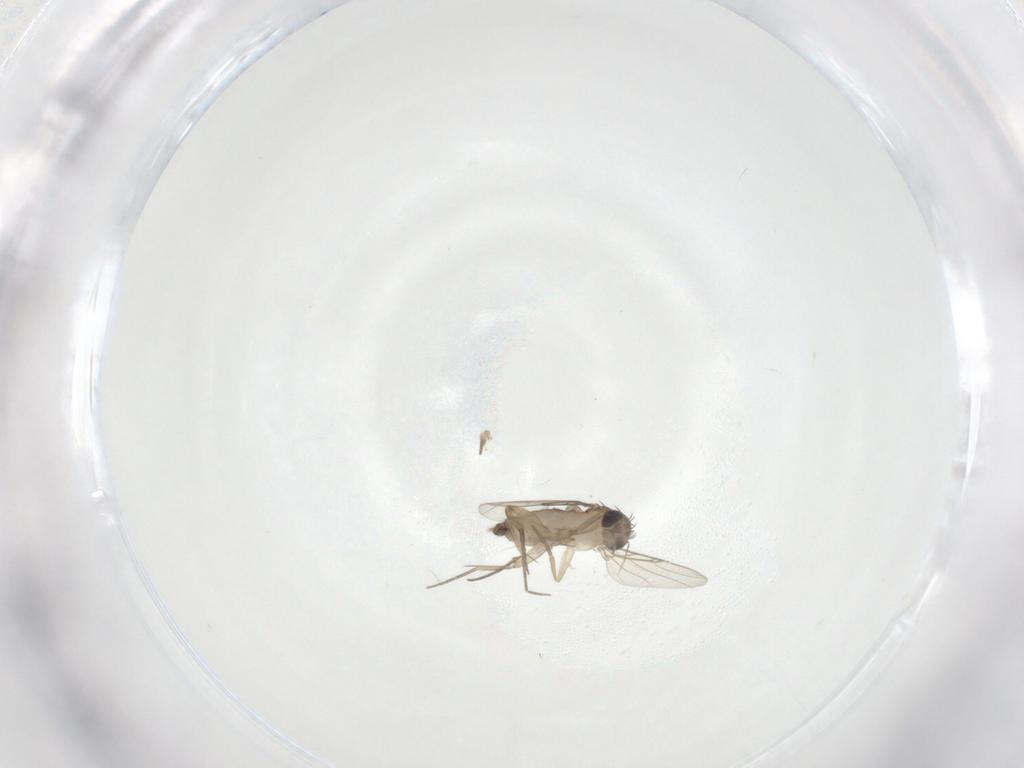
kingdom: Animalia
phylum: Arthropoda
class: Insecta
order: Diptera
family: Phoridae
